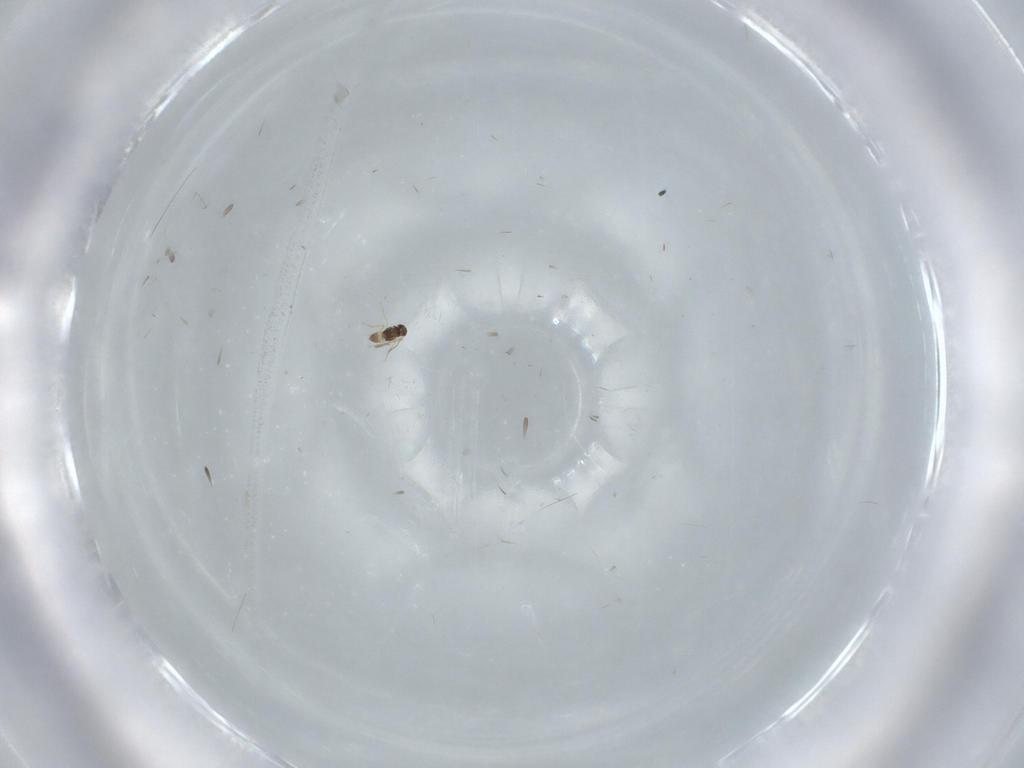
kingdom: Animalia
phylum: Arthropoda
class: Insecta
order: Hymenoptera
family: Mymaridae
